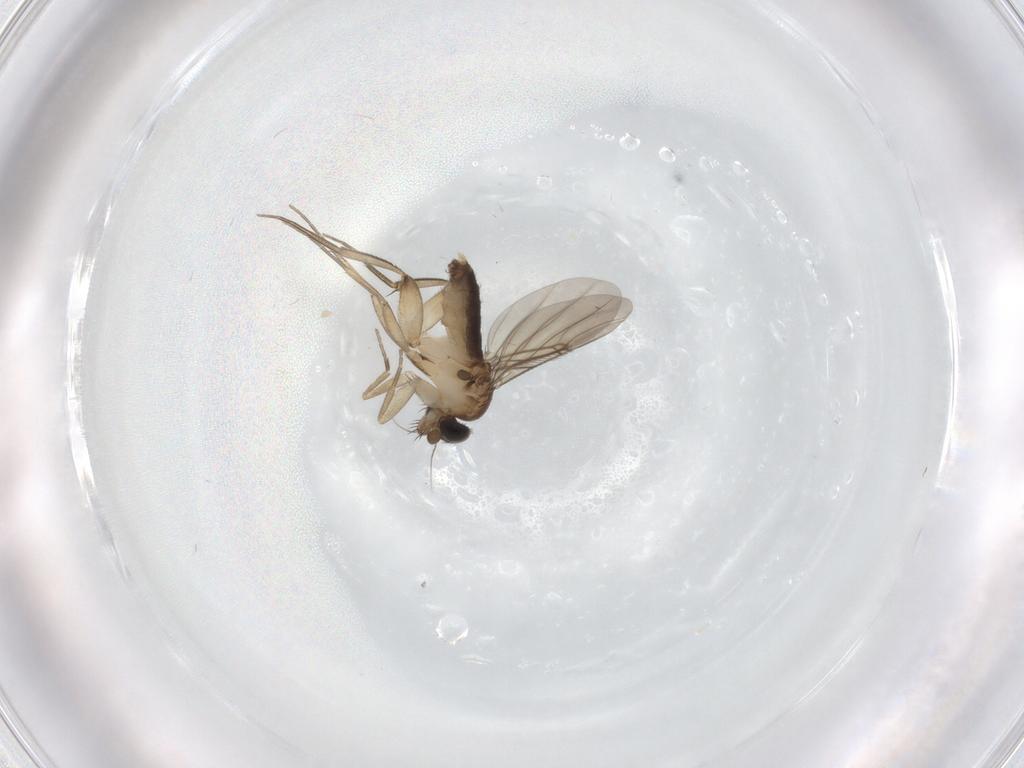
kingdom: Animalia
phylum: Arthropoda
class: Insecta
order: Diptera
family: Phoridae
